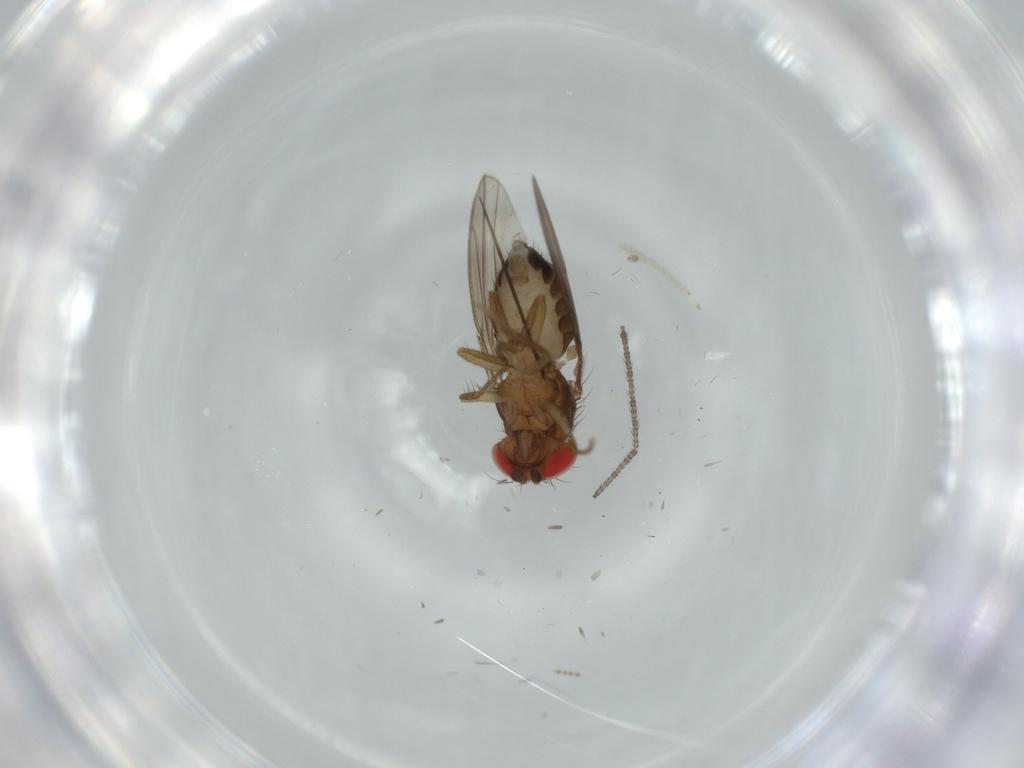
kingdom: Animalia
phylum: Arthropoda
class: Insecta
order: Diptera
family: Drosophilidae
